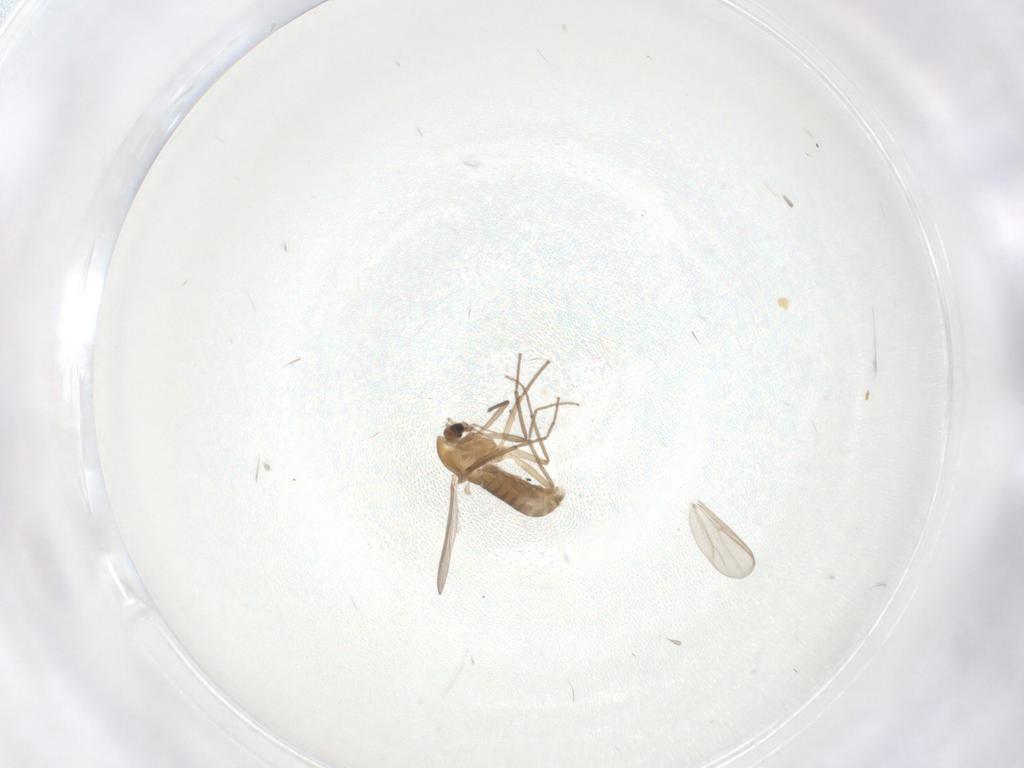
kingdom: Animalia
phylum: Arthropoda
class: Insecta
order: Diptera
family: Chironomidae
